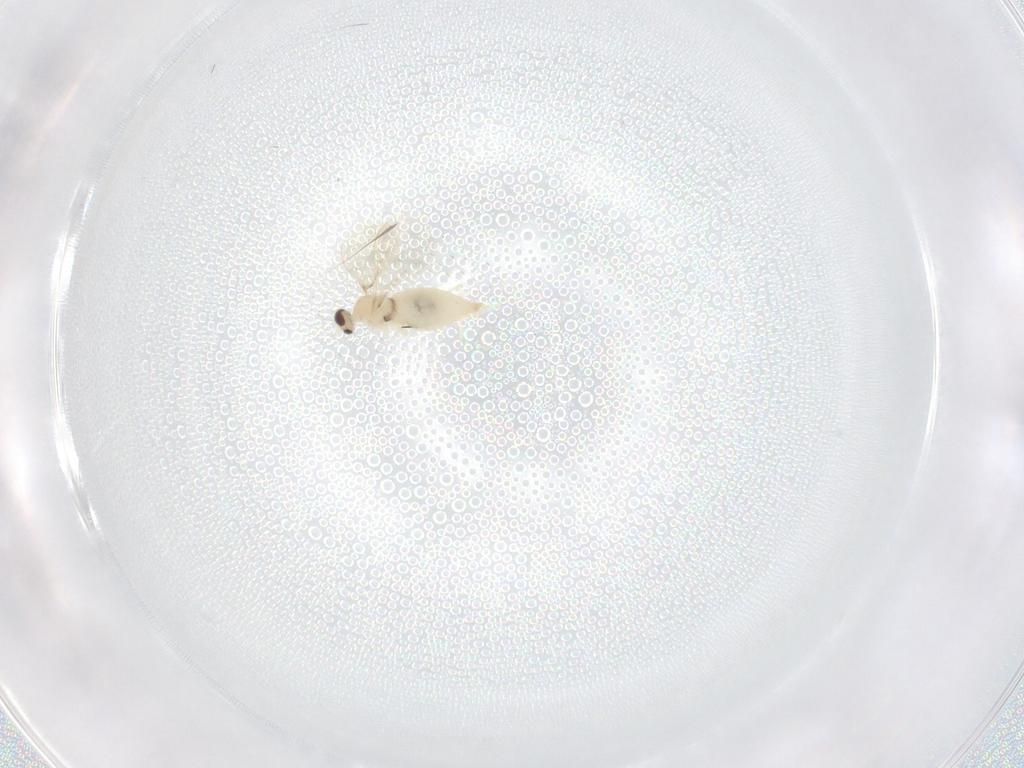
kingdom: Animalia
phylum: Arthropoda
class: Insecta
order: Diptera
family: Cecidomyiidae
